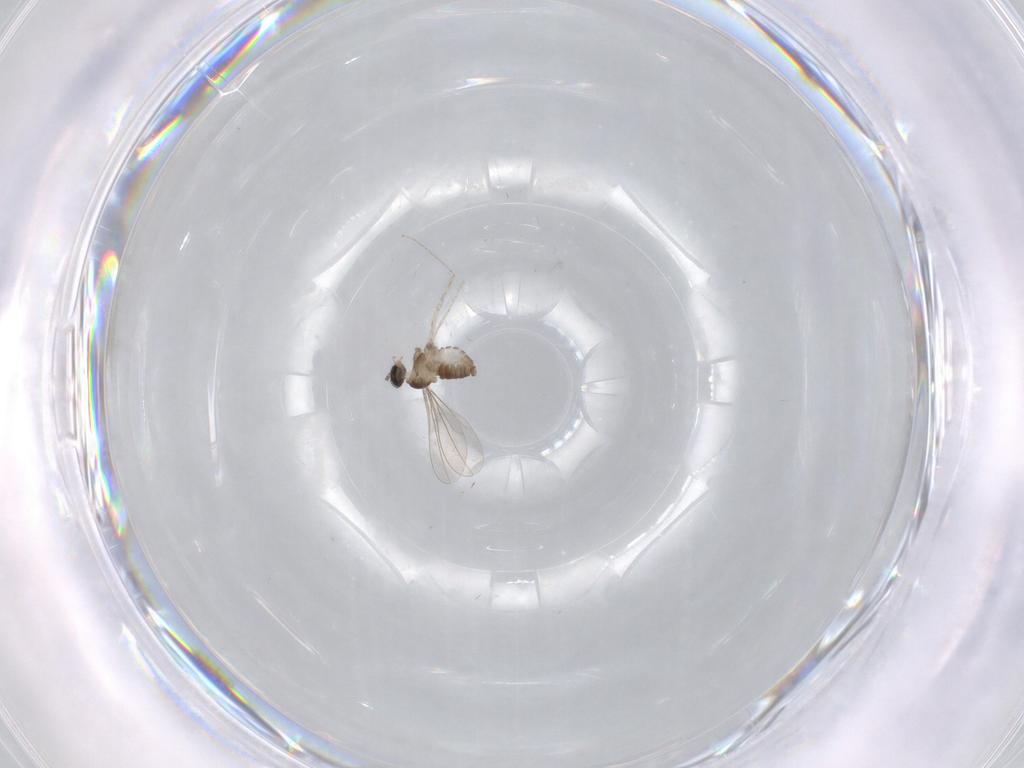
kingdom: Animalia
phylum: Arthropoda
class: Insecta
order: Diptera
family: Cecidomyiidae
